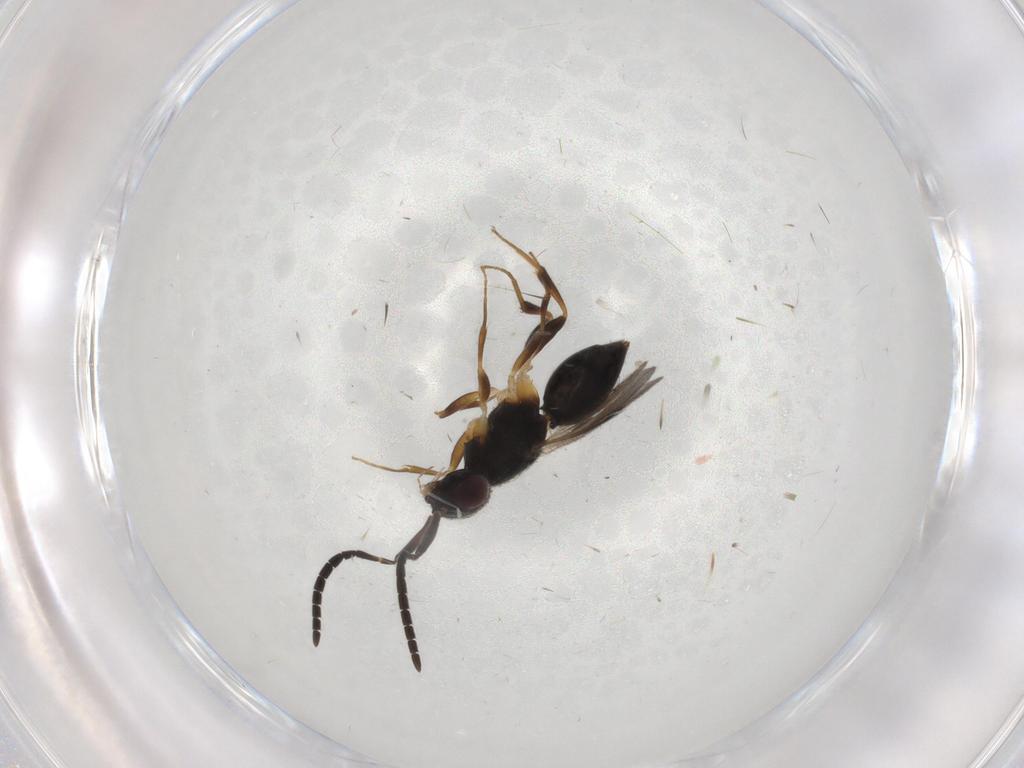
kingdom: Animalia
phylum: Arthropoda
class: Insecta
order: Hymenoptera
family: Megaspilidae
